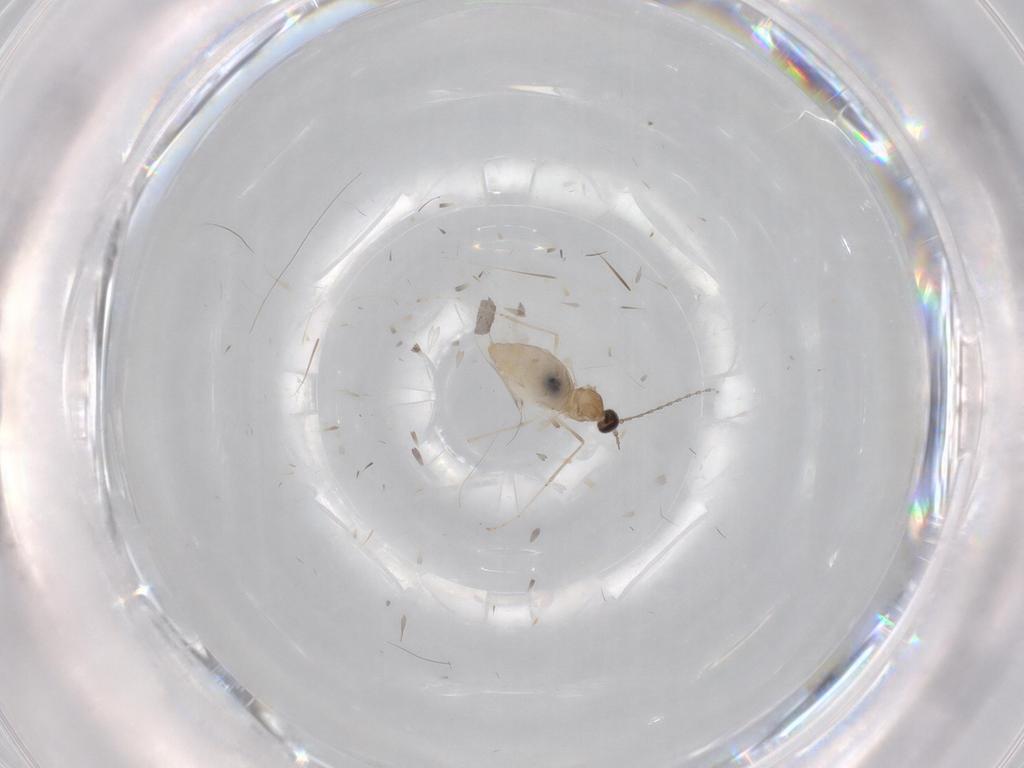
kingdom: Animalia
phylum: Arthropoda
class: Insecta
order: Diptera
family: Cecidomyiidae
